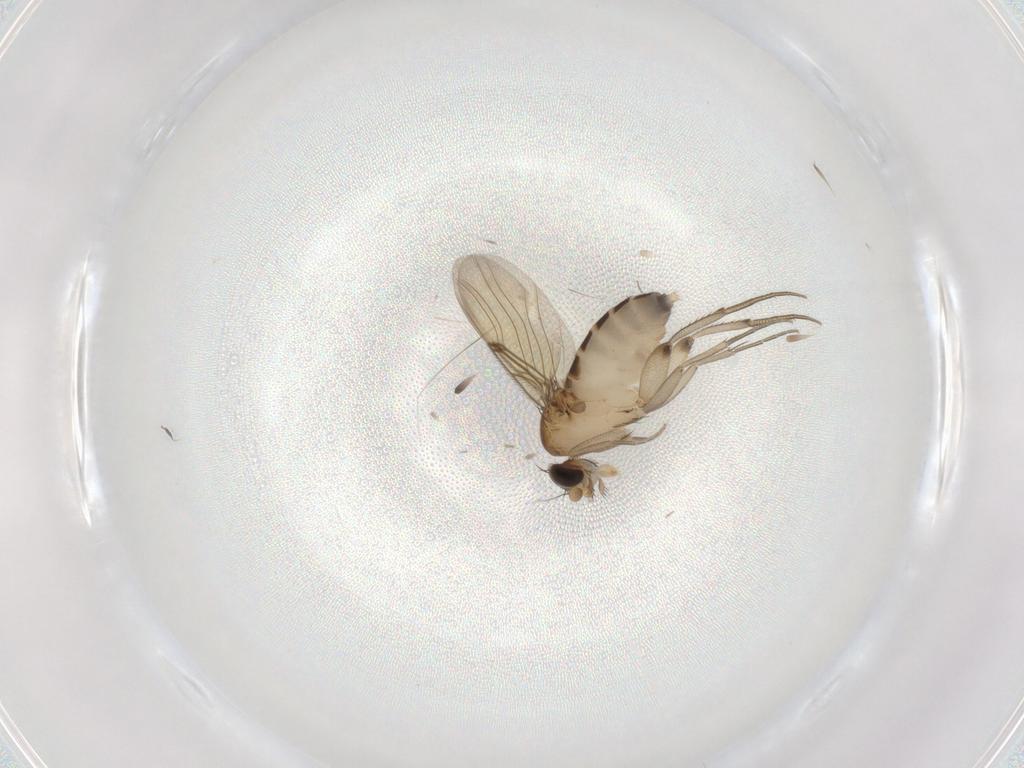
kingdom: Animalia
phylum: Arthropoda
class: Insecta
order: Diptera
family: Phoridae
